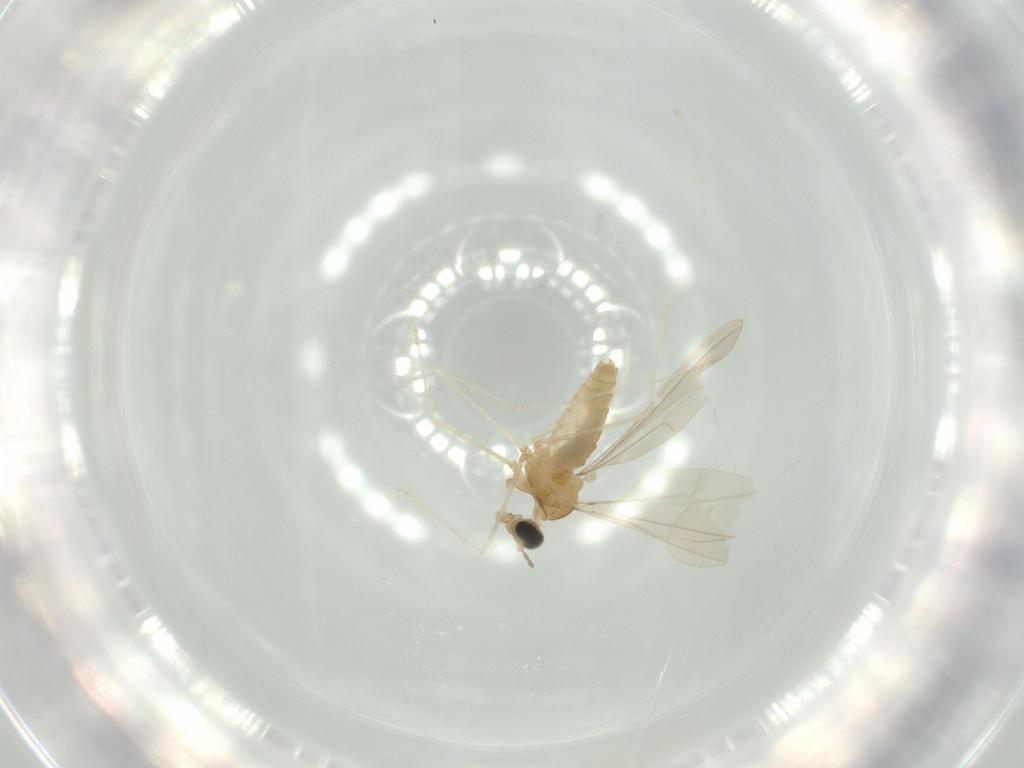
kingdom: Animalia
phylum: Arthropoda
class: Insecta
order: Diptera
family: Cecidomyiidae
